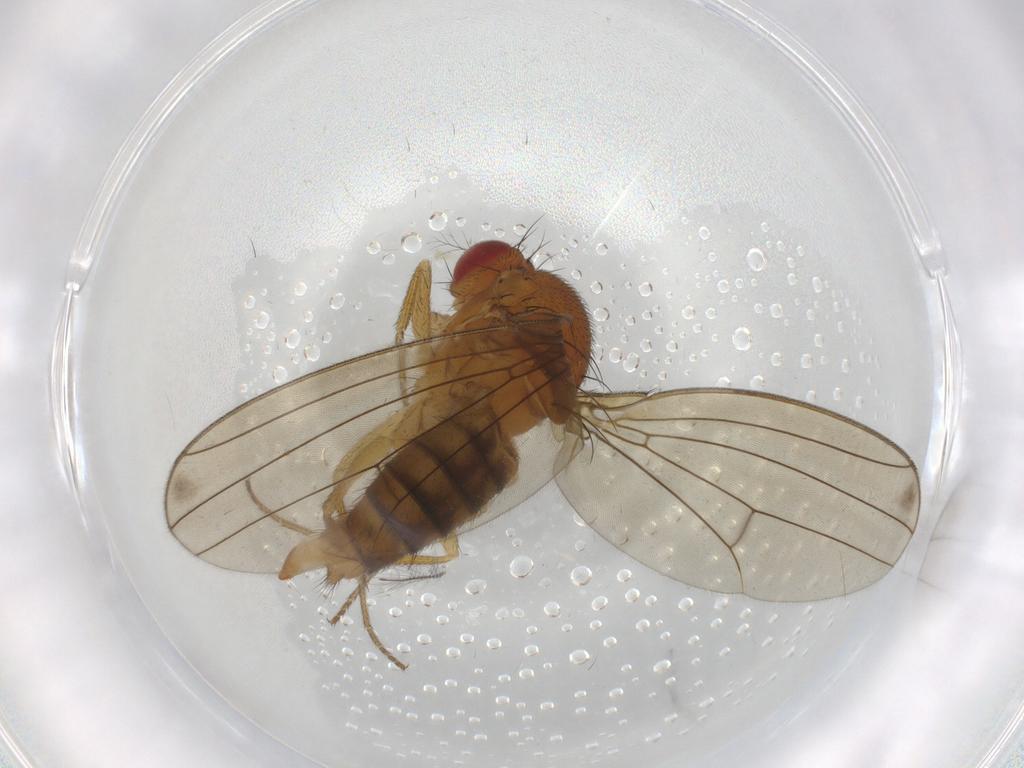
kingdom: Animalia
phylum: Arthropoda
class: Insecta
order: Diptera
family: Drosophilidae
